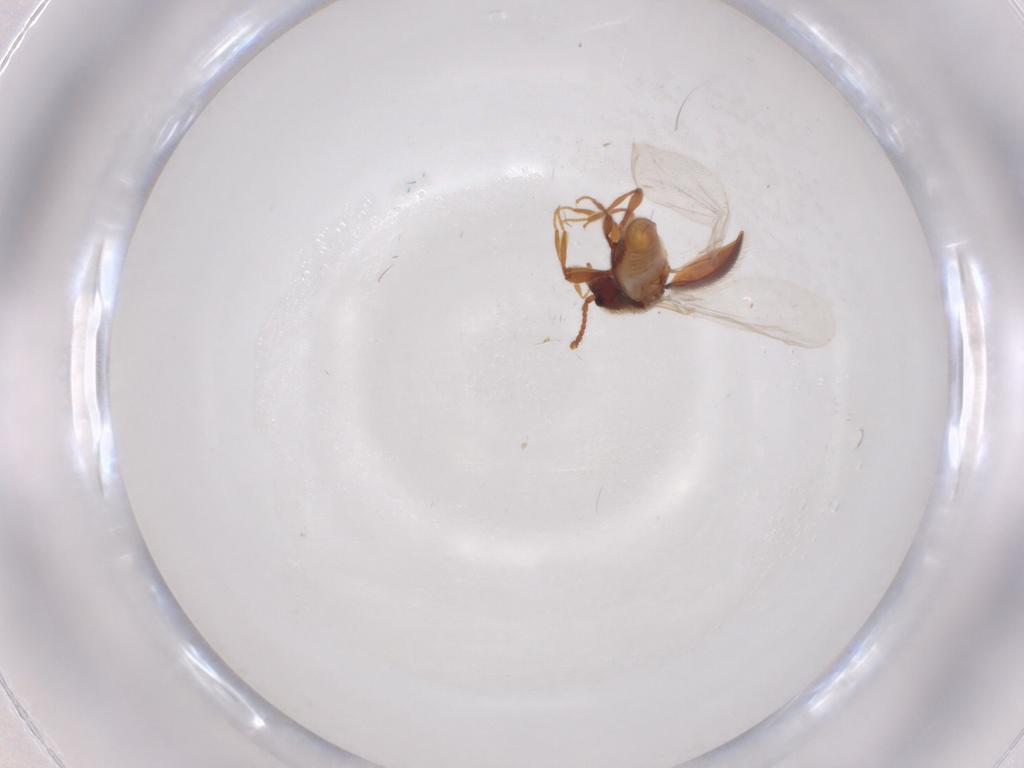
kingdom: Animalia
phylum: Arthropoda
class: Insecta
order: Coleoptera
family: Staphylinidae
